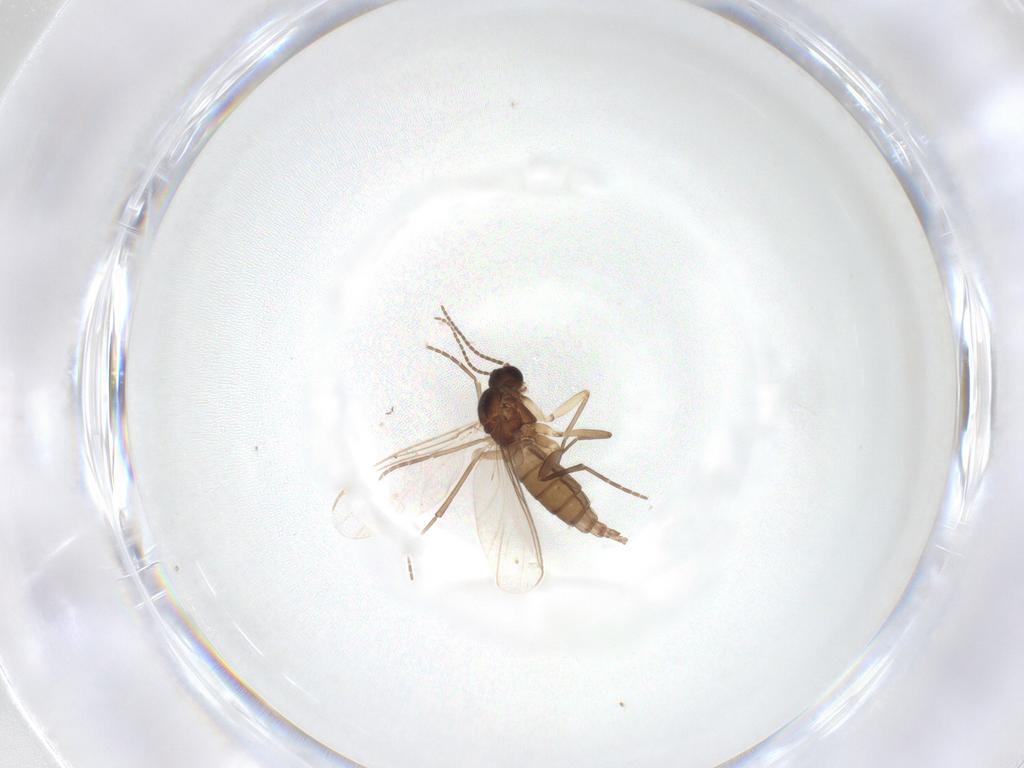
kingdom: Animalia
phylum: Arthropoda
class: Insecta
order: Diptera
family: Sciaridae
